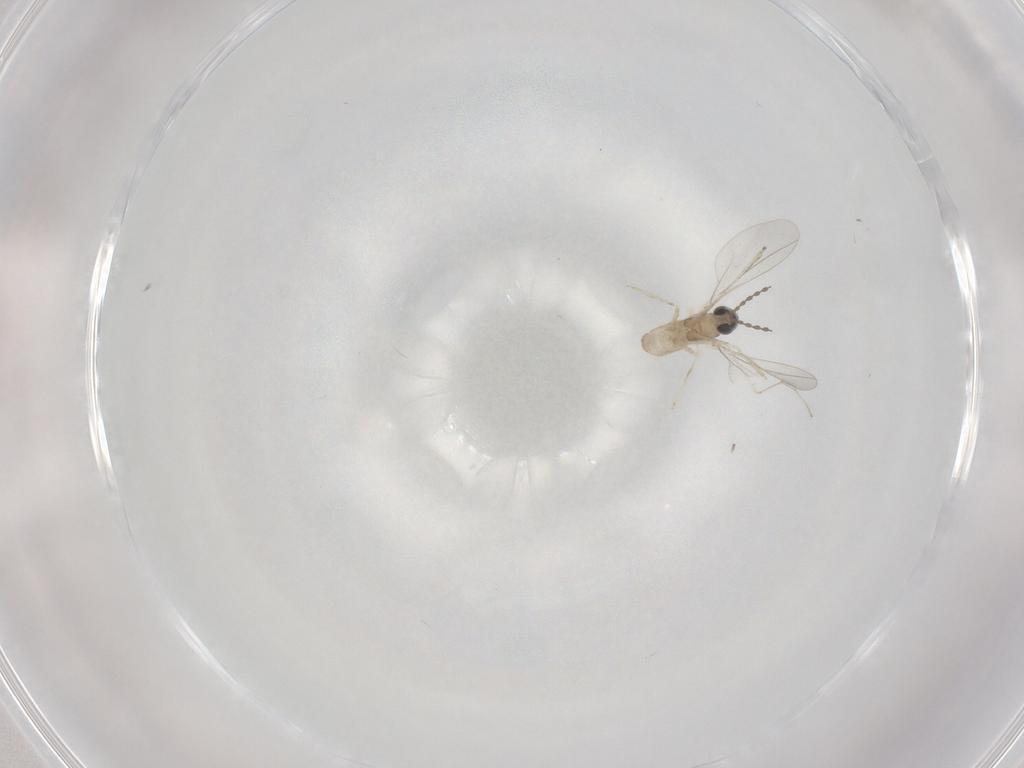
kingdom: Animalia
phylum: Arthropoda
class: Insecta
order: Diptera
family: Cecidomyiidae
